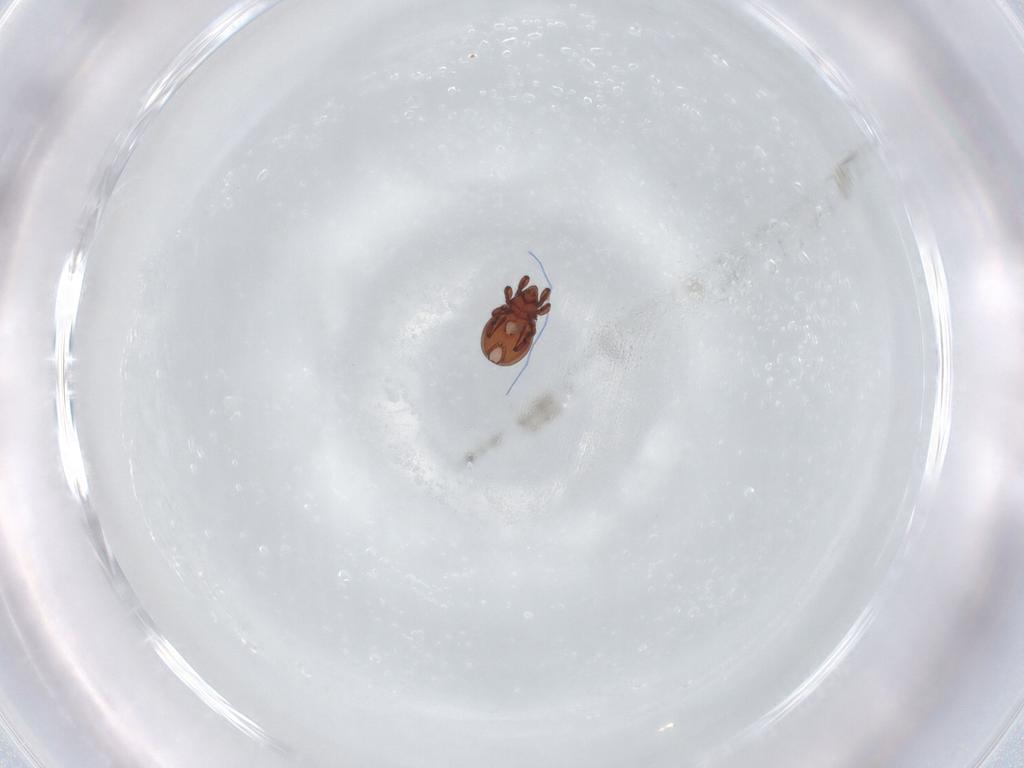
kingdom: Animalia
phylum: Arthropoda
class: Arachnida
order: Sarcoptiformes
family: Eremaeidae
